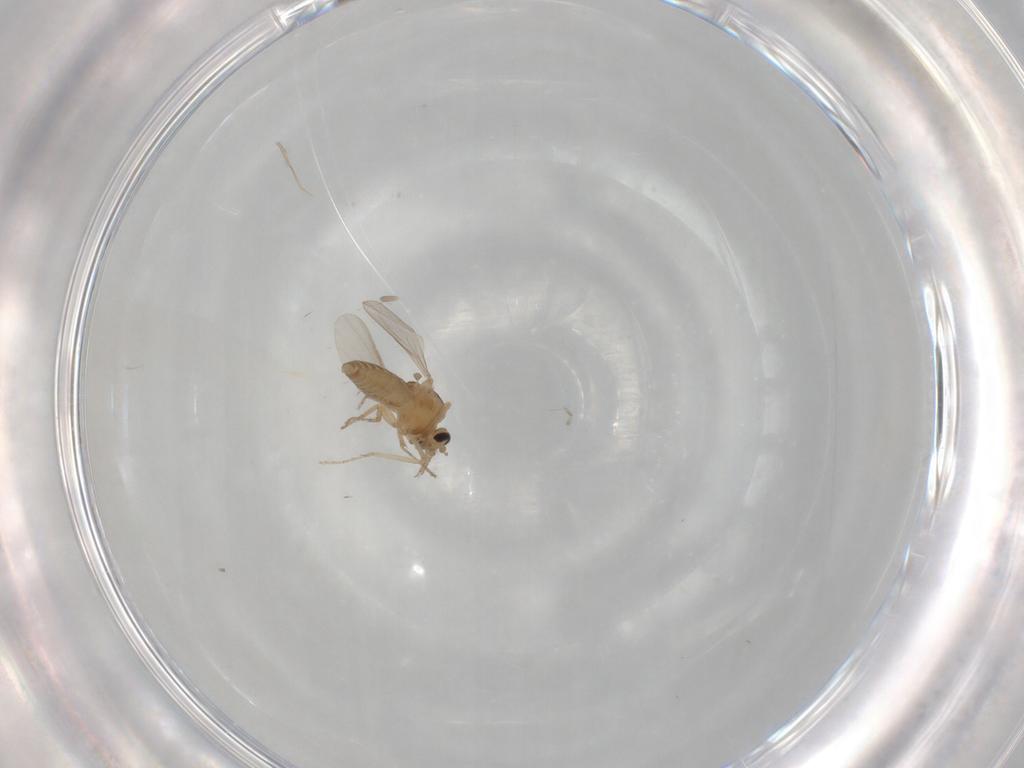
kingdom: Animalia
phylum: Arthropoda
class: Insecta
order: Diptera
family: Ceratopogonidae
